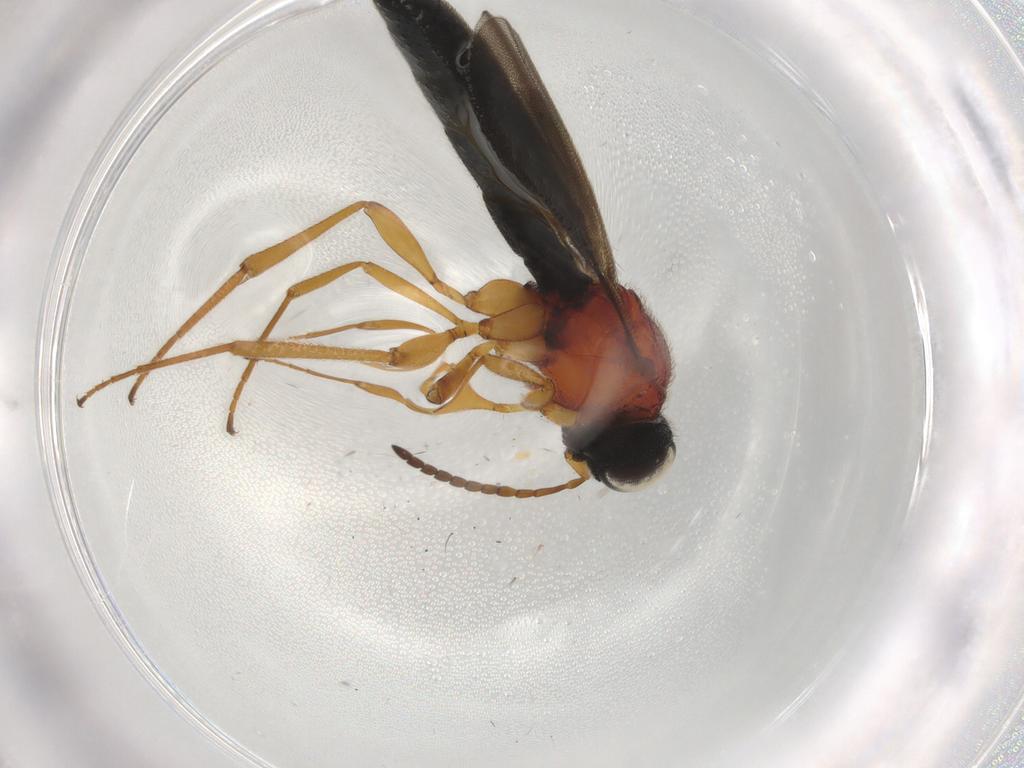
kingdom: Animalia
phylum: Arthropoda
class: Insecta
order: Hymenoptera
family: Scelionidae
